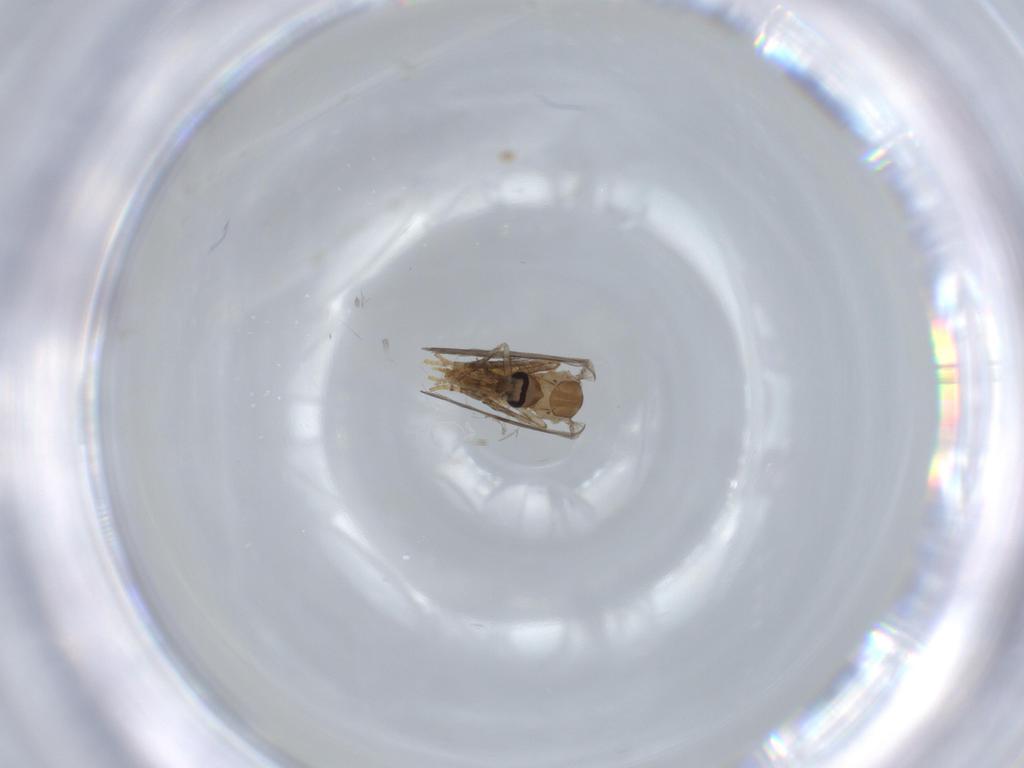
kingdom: Animalia
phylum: Arthropoda
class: Insecta
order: Diptera
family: Psychodidae
